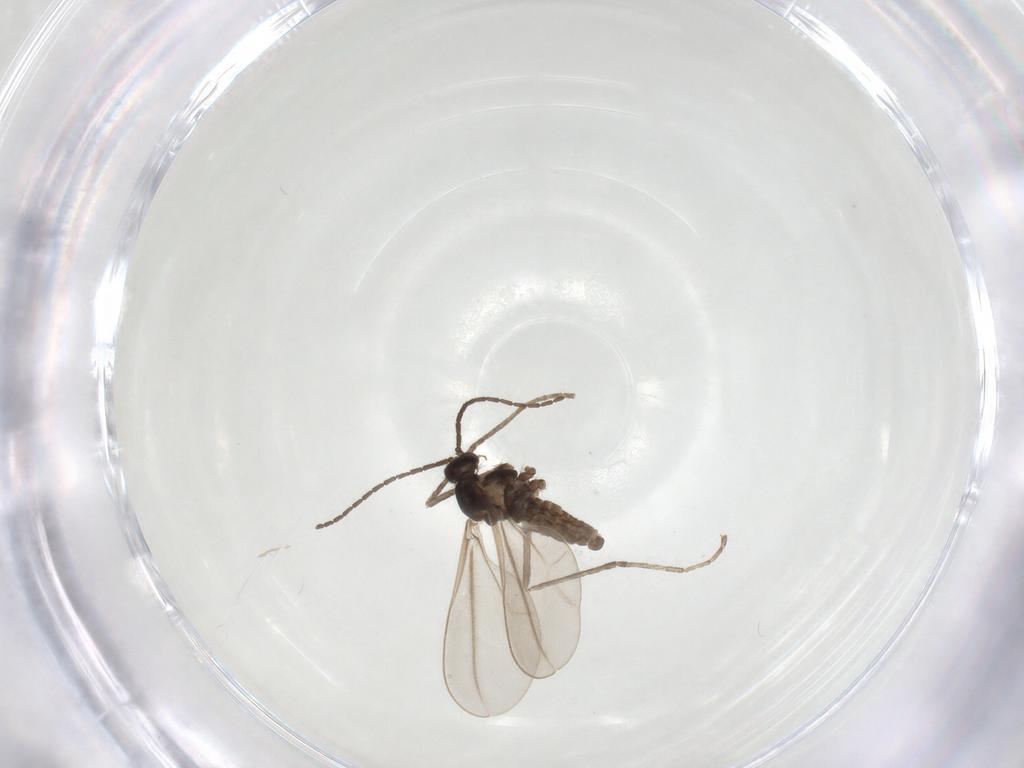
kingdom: Animalia
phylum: Arthropoda
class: Insecta
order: Diptera
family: Cecidomyiidae
